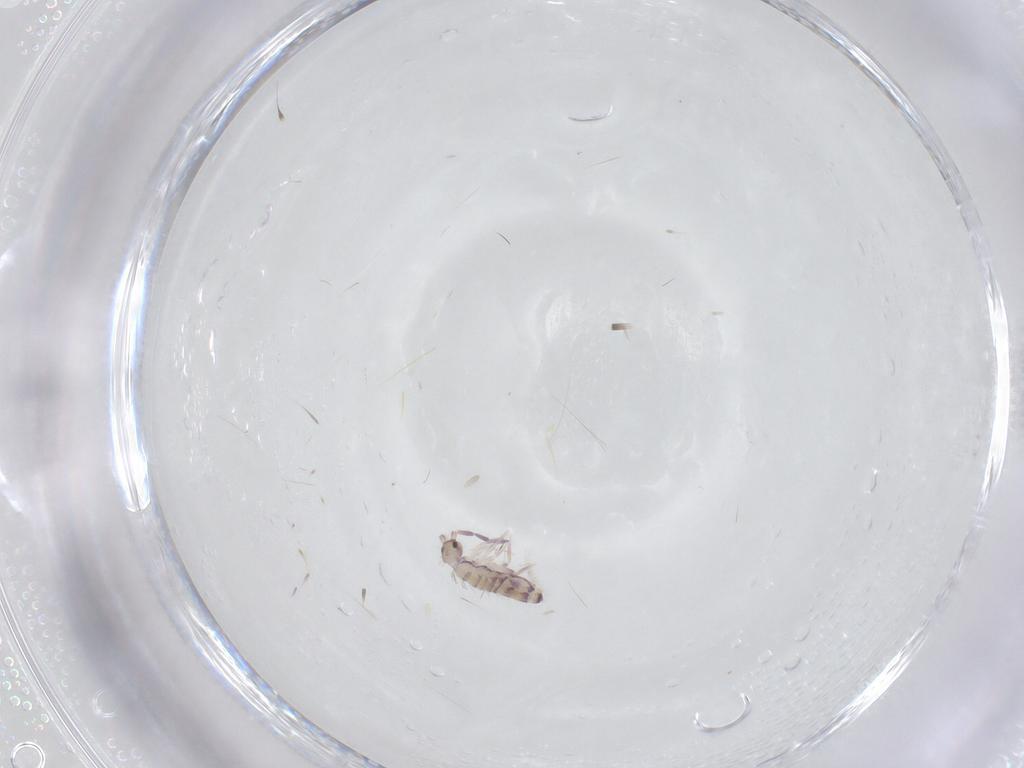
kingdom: Animalia
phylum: Arthropoda
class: Collembola
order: Entomobryomorpha
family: Entomobryidae
